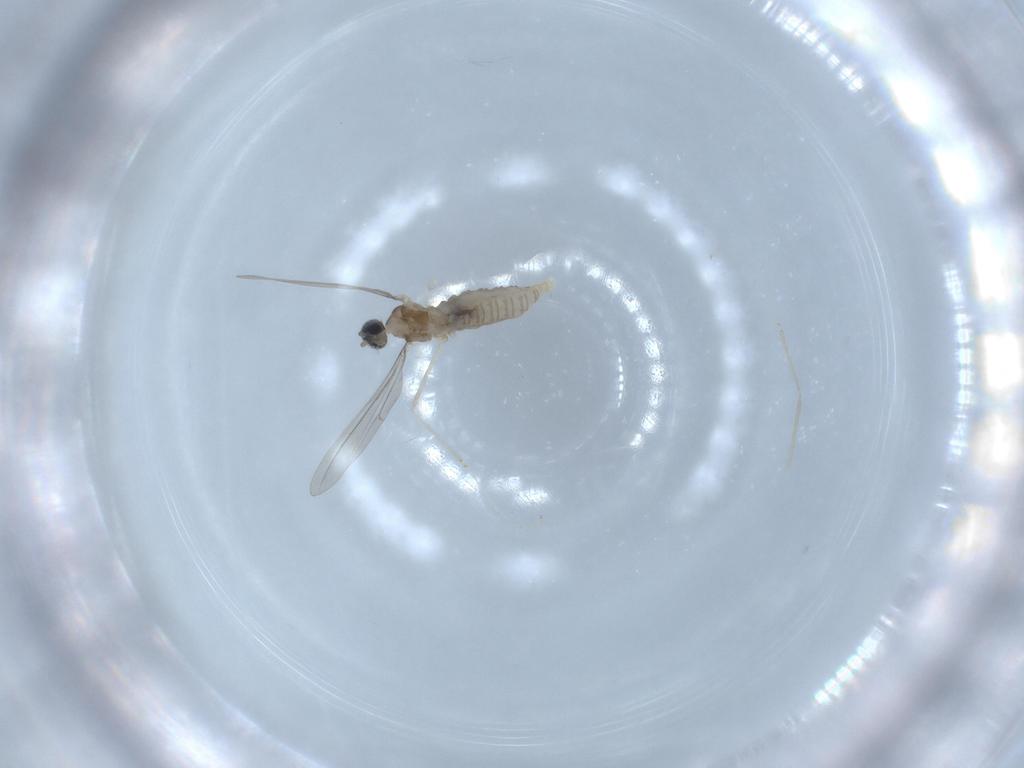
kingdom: Animalia
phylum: Arthropoda
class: Insecta
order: Diptera
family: Cecidomyiidae
